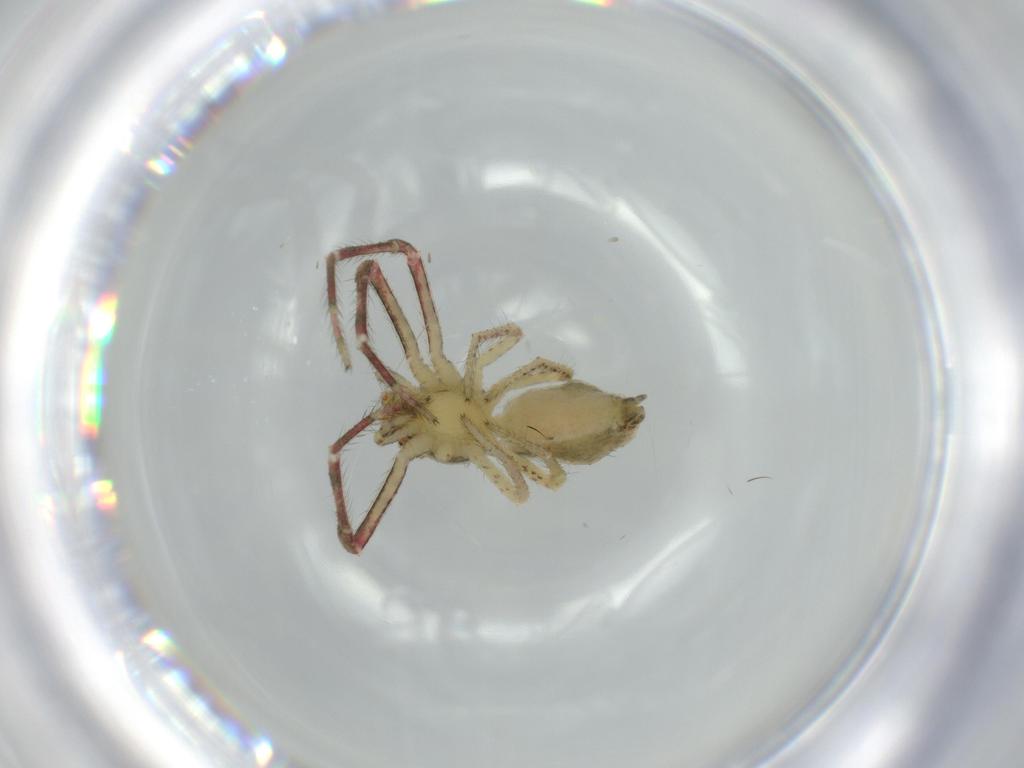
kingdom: Animalia
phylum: Arthropoda
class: Arachnida
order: Araneae
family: Thomisidae
